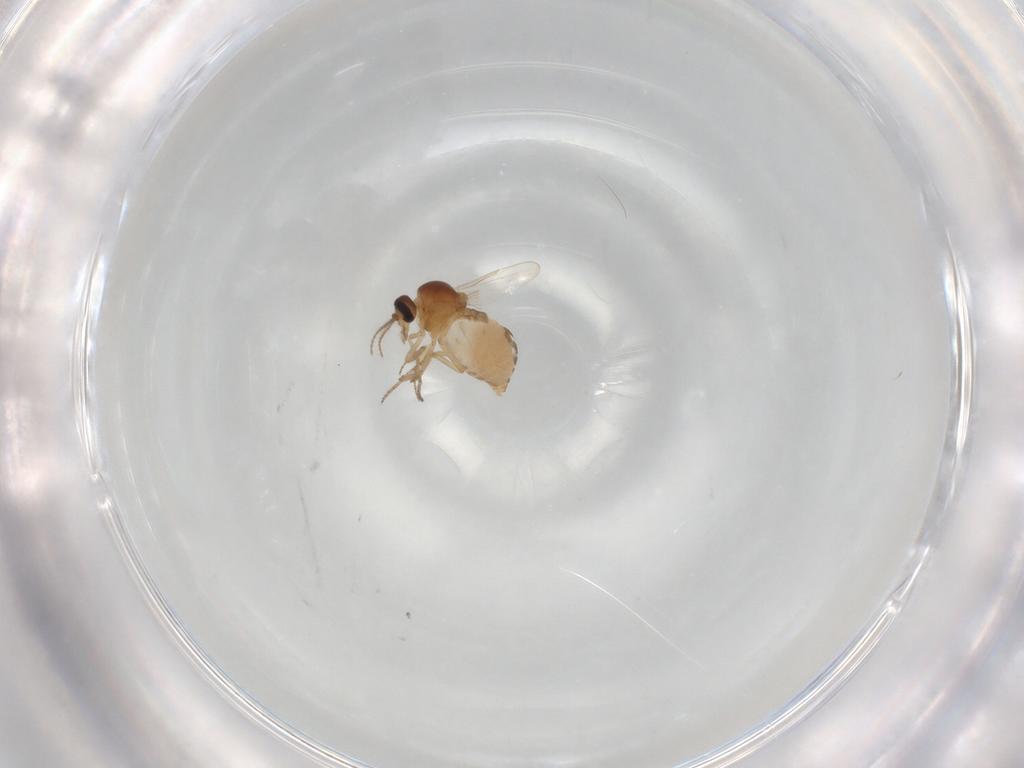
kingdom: Animalia
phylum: Arthropoda
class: Insecta
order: Diptera
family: Ceratopogonidae
